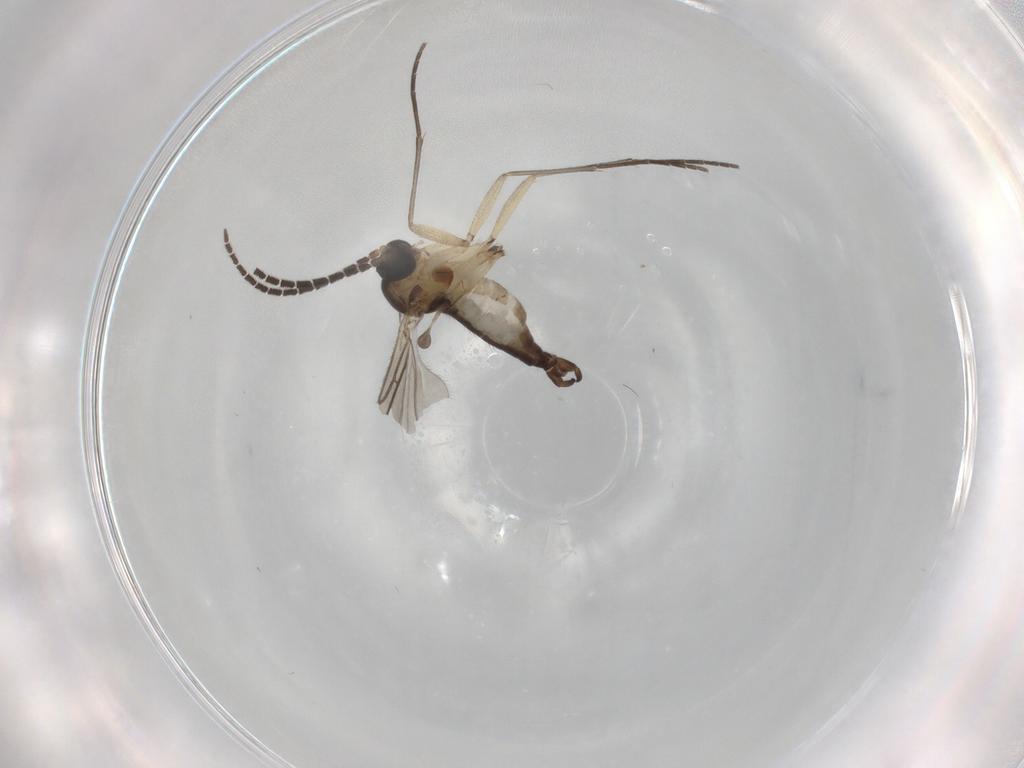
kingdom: Animalia
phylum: Arthropoda
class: Insecta
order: Diptera
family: Sciaridae
